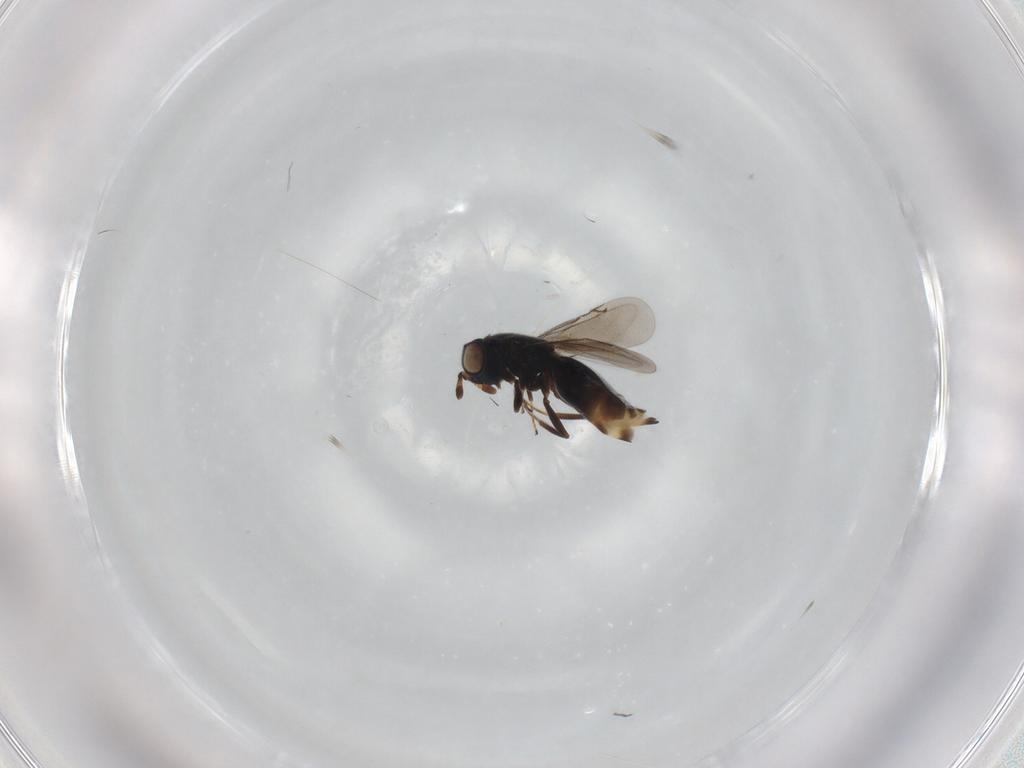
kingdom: Animalia
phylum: Arthropoda
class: Insecta
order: Hymenoptera
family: Eunotidae
